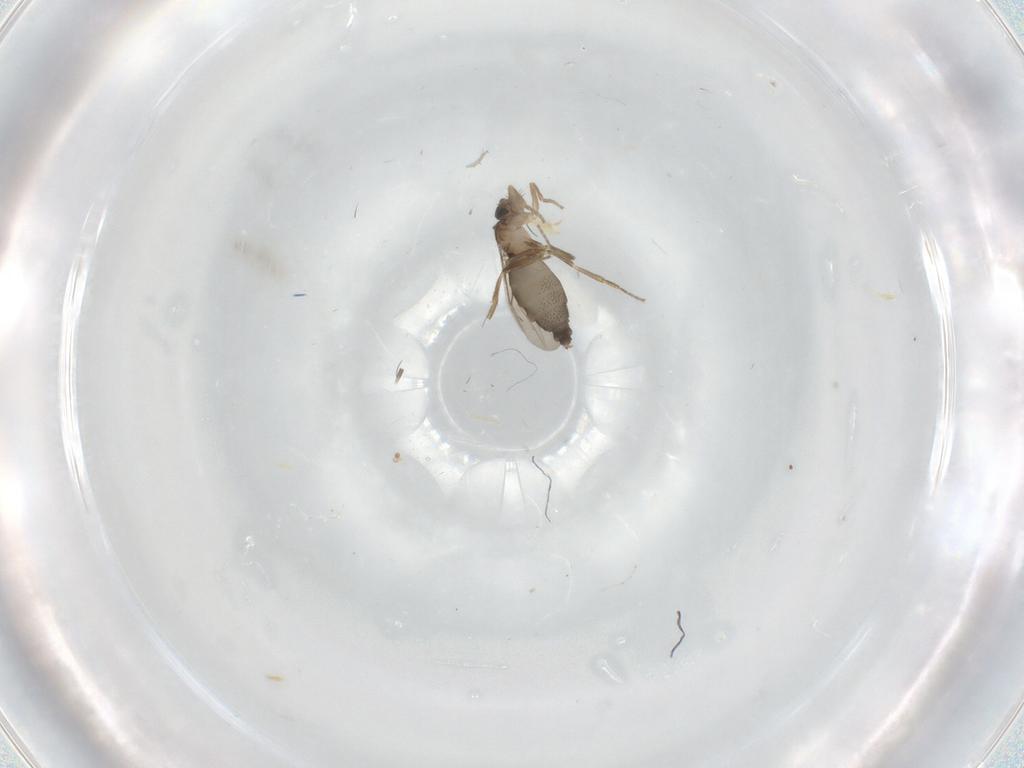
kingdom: Animalia
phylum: Arthropoda
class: Insecta
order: Diptera
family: Phoridae
